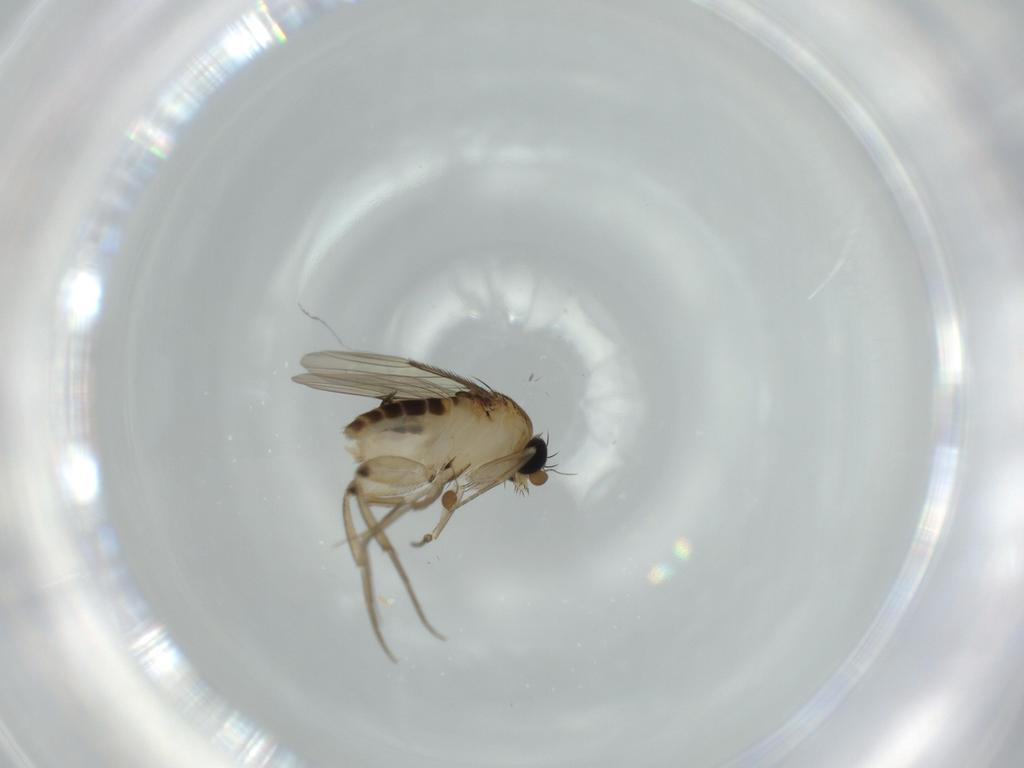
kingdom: Animalia
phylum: Arthropoda
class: Insecta
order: Diptera
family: Phoridae
